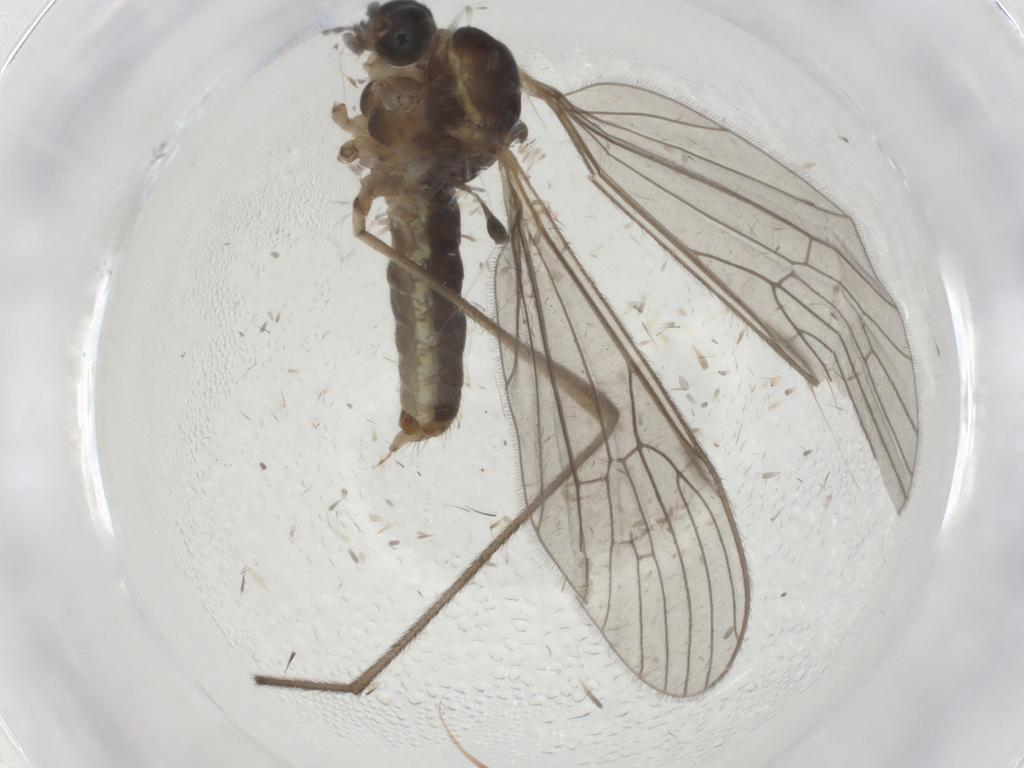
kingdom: Animalia
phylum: Arthropoda
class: Insecta
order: Diptera
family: Limoniidae
